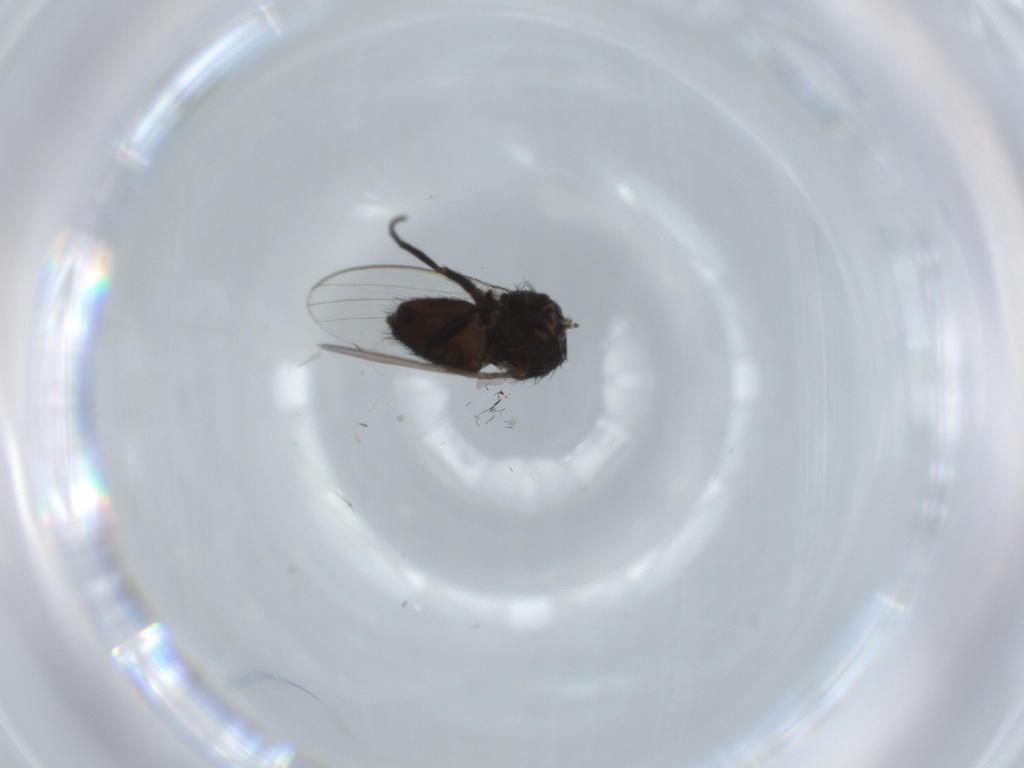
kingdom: Animalia
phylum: Arthropoda
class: Insecta
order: Diptera
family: Milichiidae
